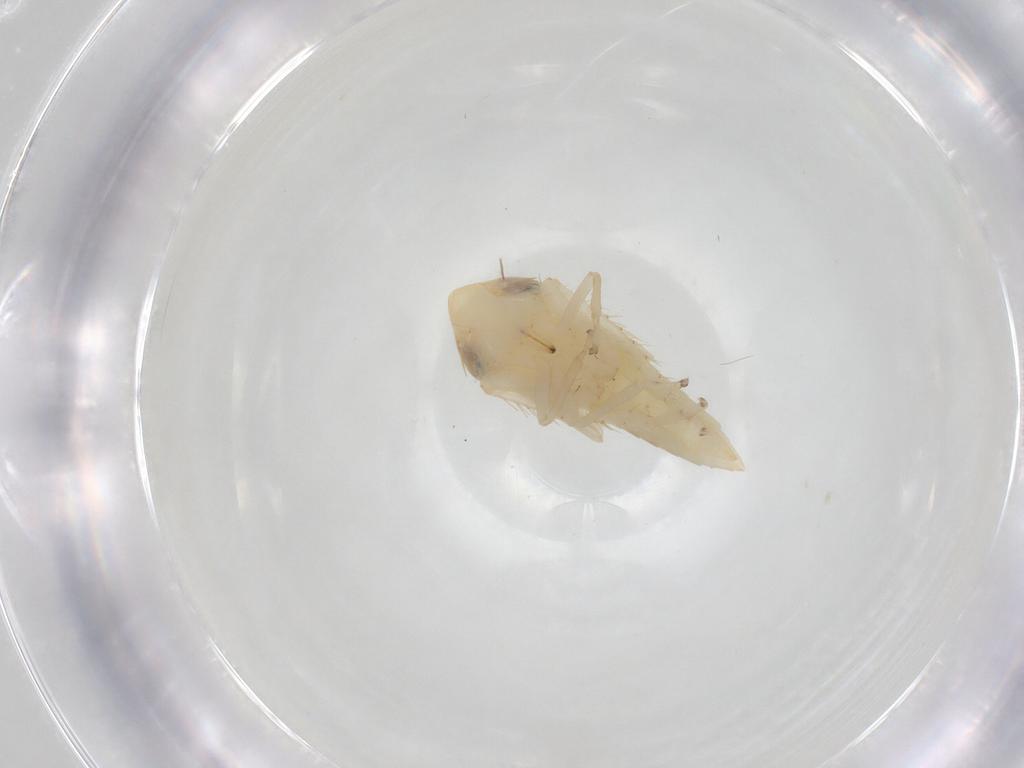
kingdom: Animalia
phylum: Arthropoda
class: Insecta
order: Hemiptera
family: Cicadellidae
